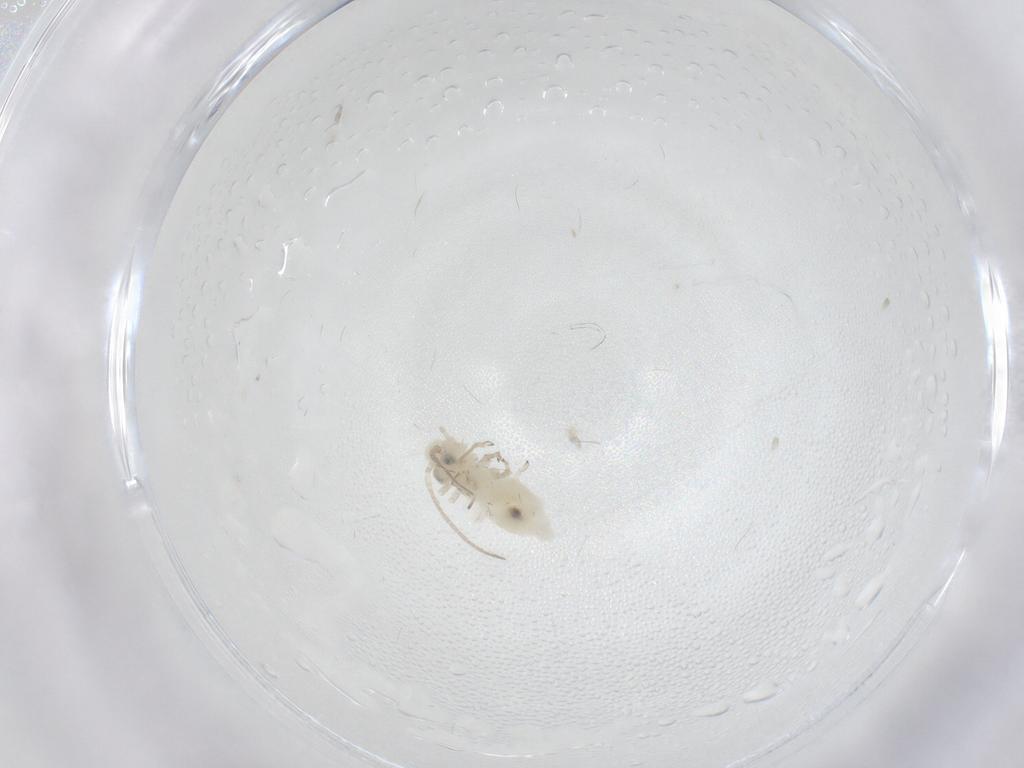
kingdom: Animalia
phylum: Arthropoda
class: Insecta
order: Psocodea
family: Caeciliusidae
